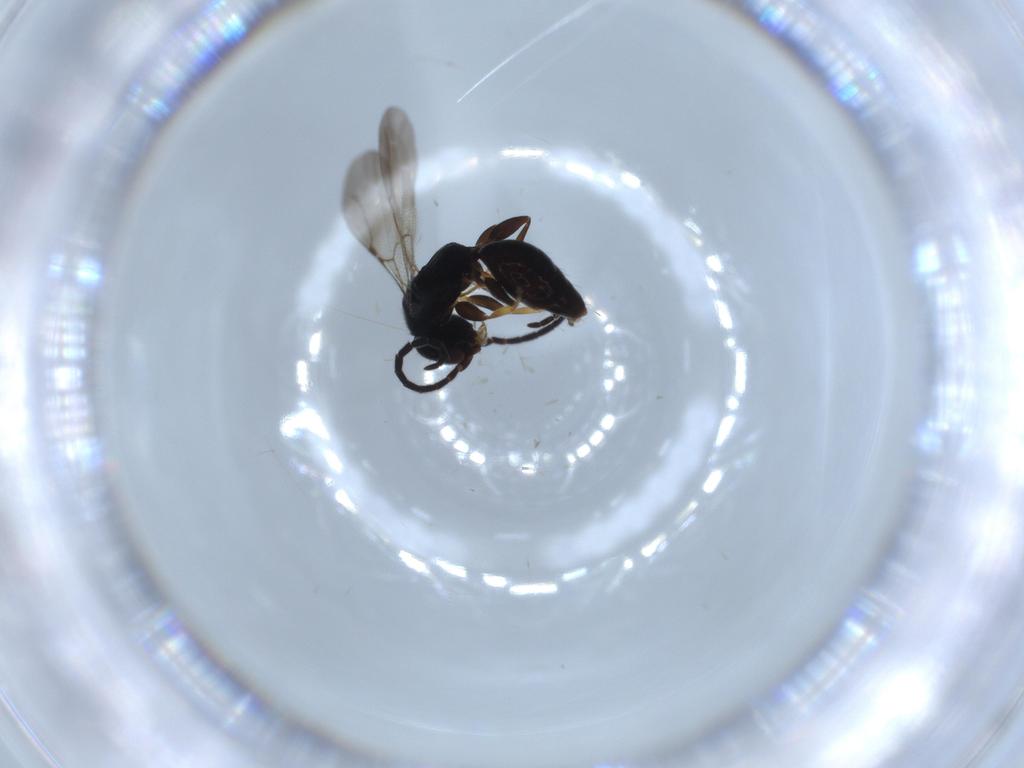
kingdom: Animalia
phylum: Arthropoda
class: Insecta
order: Hymenoptera
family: Bethylidae
